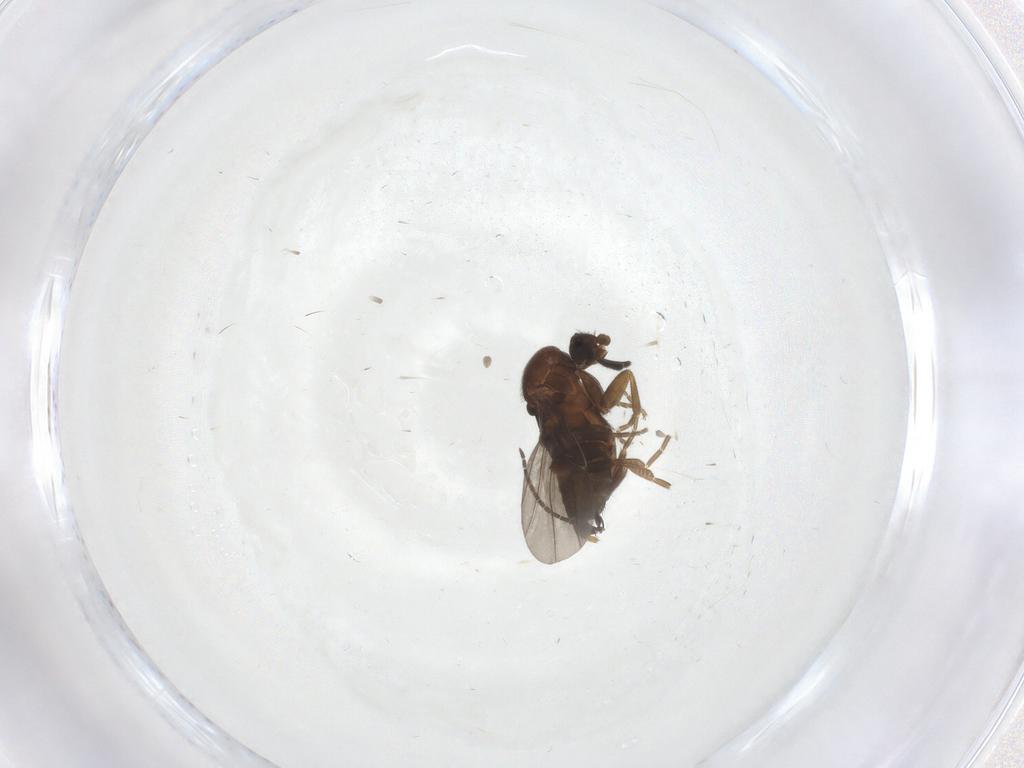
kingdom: Animalia
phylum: Arthropoda
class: Insecta
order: Diptera
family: Sciaridae
